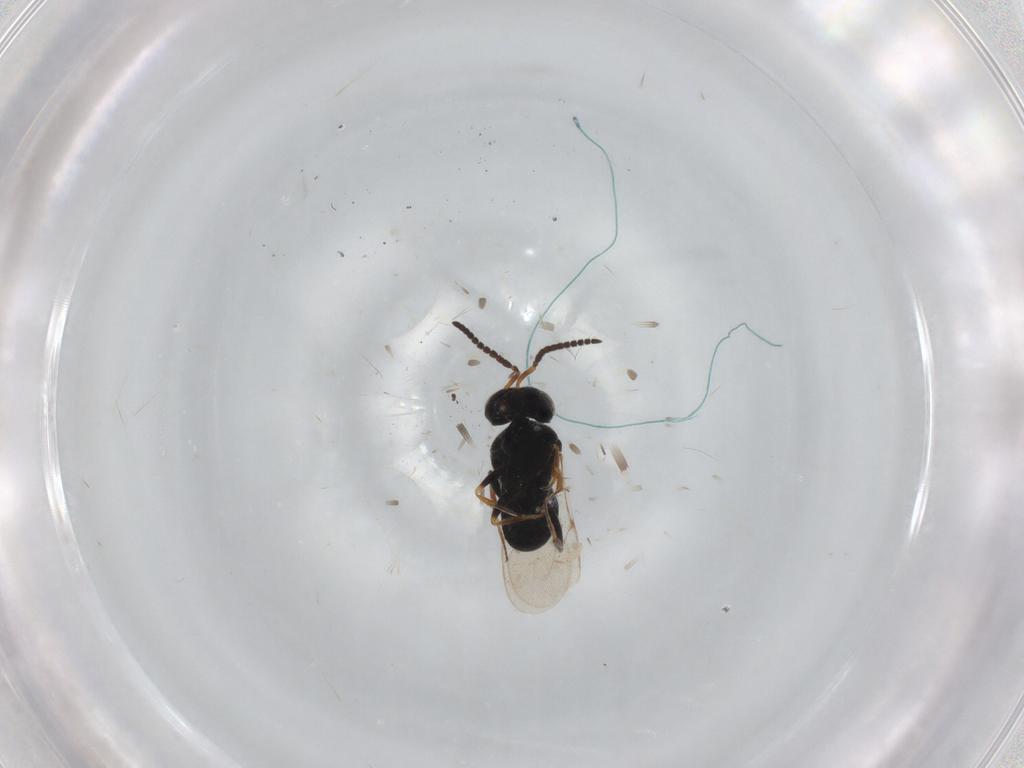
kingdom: Animalia
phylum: Arthropoda
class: Insecta
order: Coleoptera
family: Curculionidae
